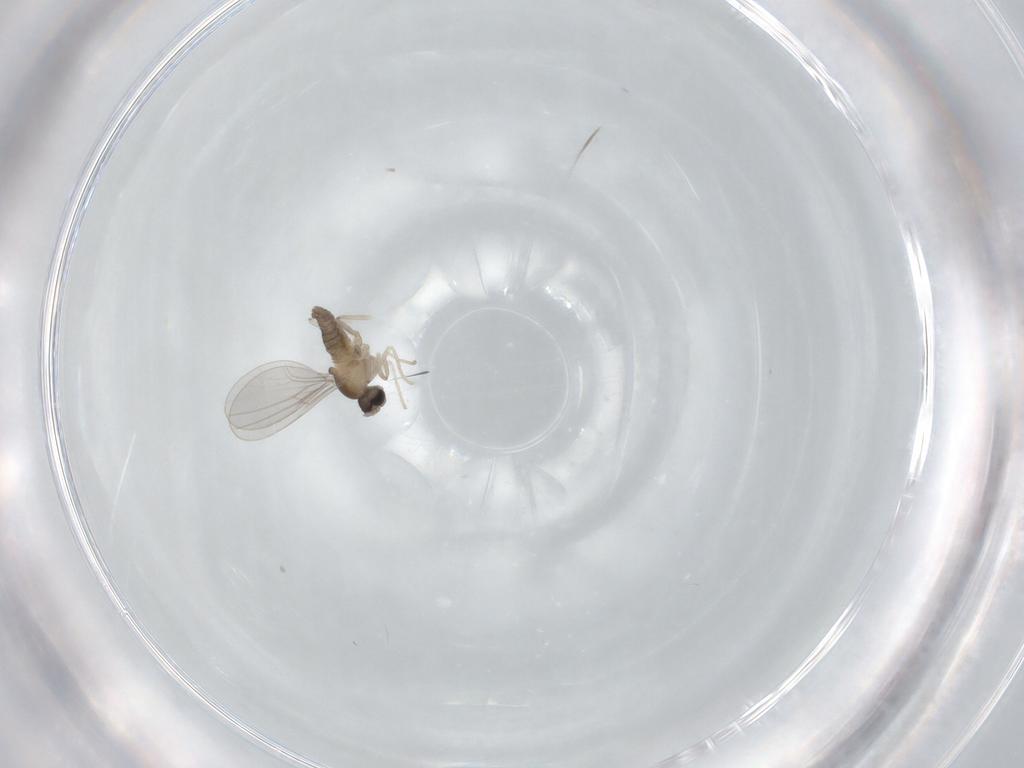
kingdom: Animalia
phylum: Arthropoda
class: Insecta
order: Diptera
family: Chironomidae
